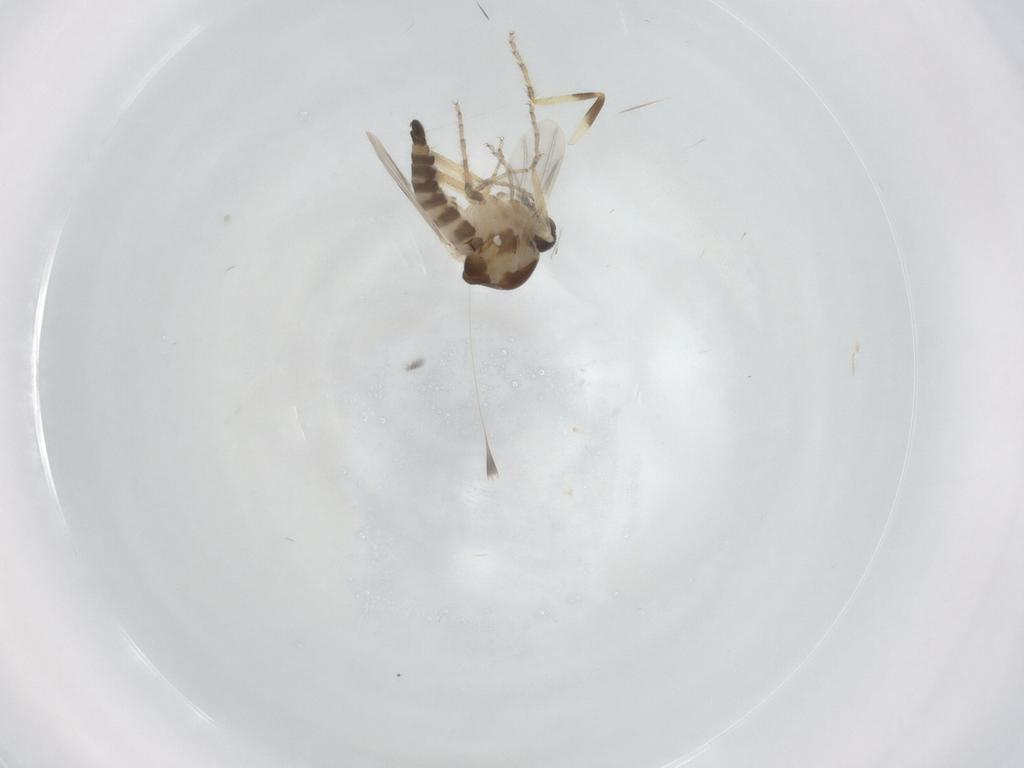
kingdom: Animalia
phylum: Arthropoda
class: Insecta
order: Diptera
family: Ceratopogonidae
